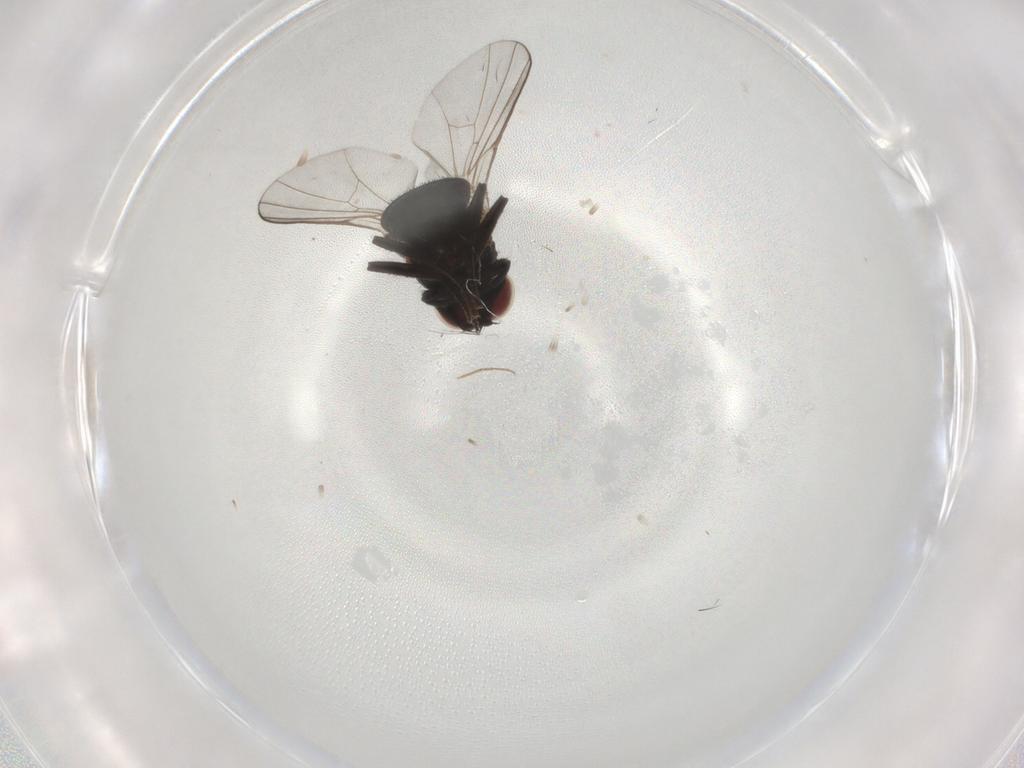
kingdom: Animalia
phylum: Arthropoda
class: Insecta
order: Diptera
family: Agromyzidae
